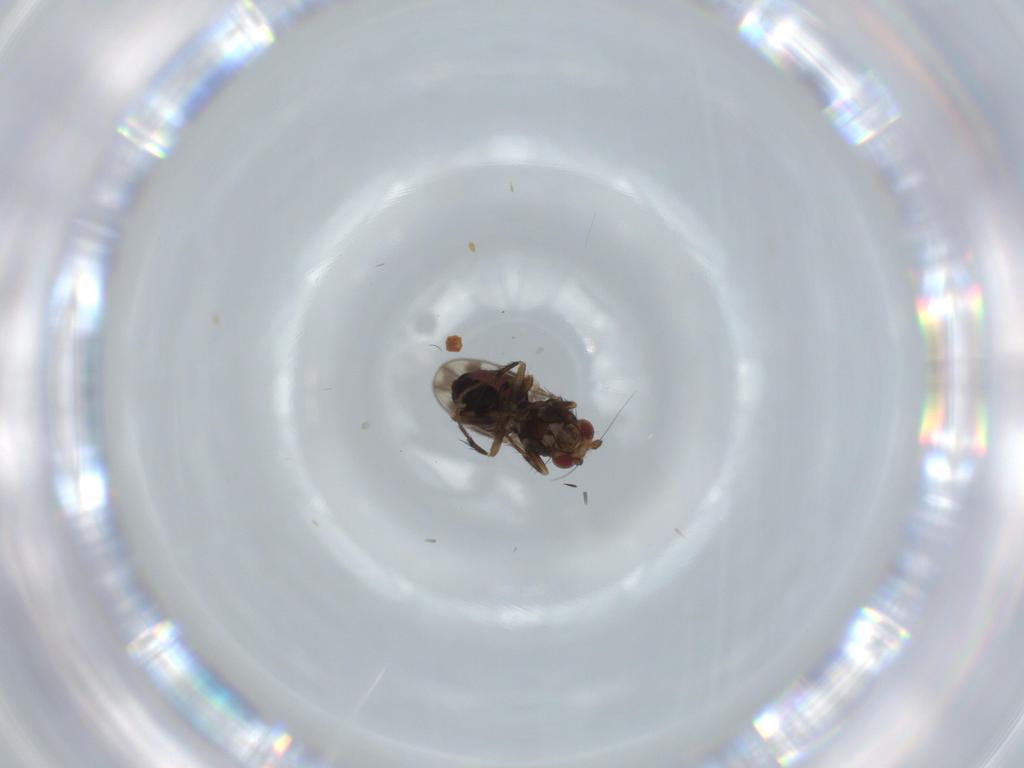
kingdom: Animalia
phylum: Arthropoda
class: Insecta
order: Diptera
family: Sphaeroceridae
